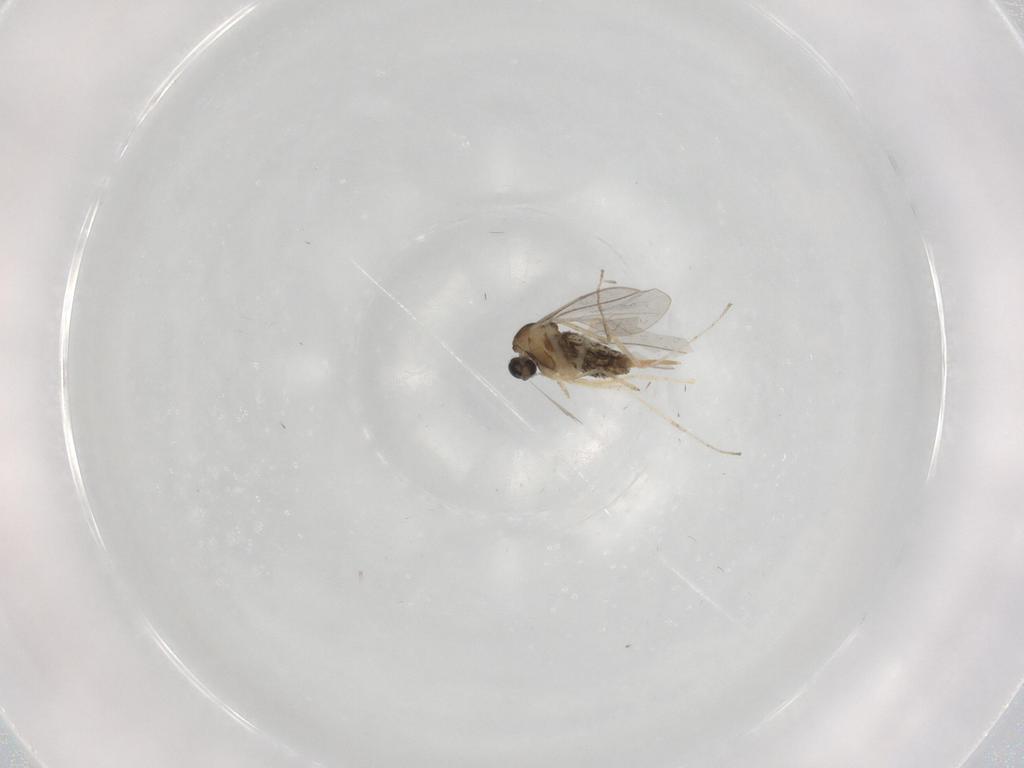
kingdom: Animalia
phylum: Arthropoda
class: Insecta
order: Diptera
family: Cecidomyiidae
